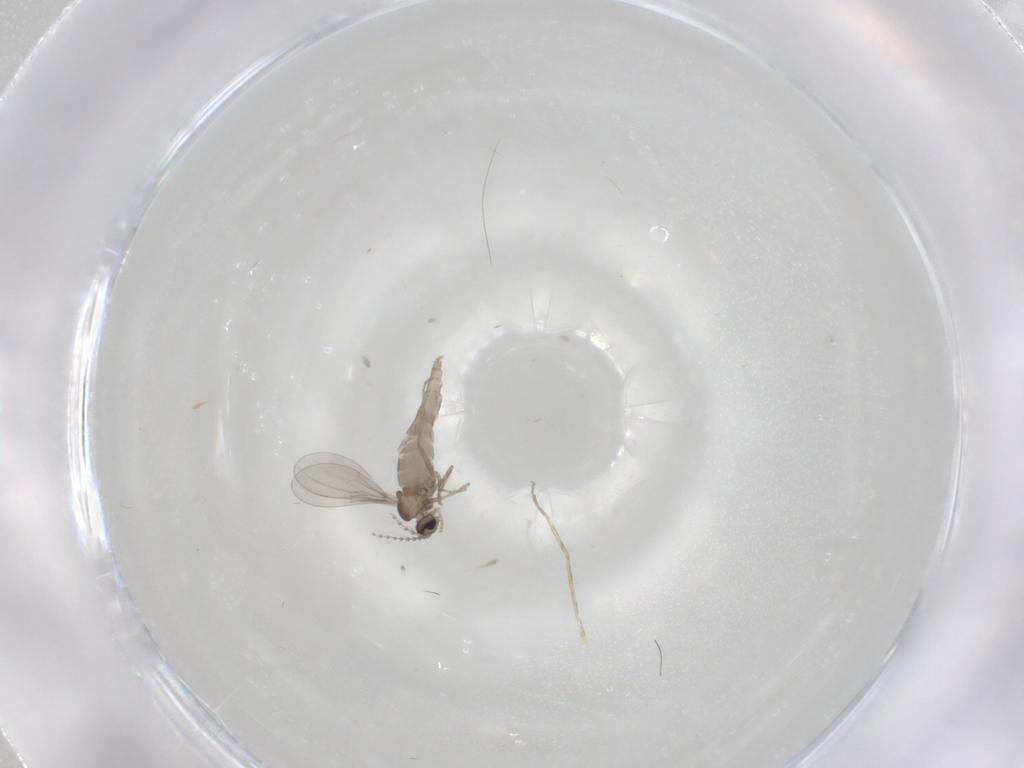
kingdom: Animalia
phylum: Arthropoda
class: Insecta
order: Diptera
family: Cecidomyiidae
